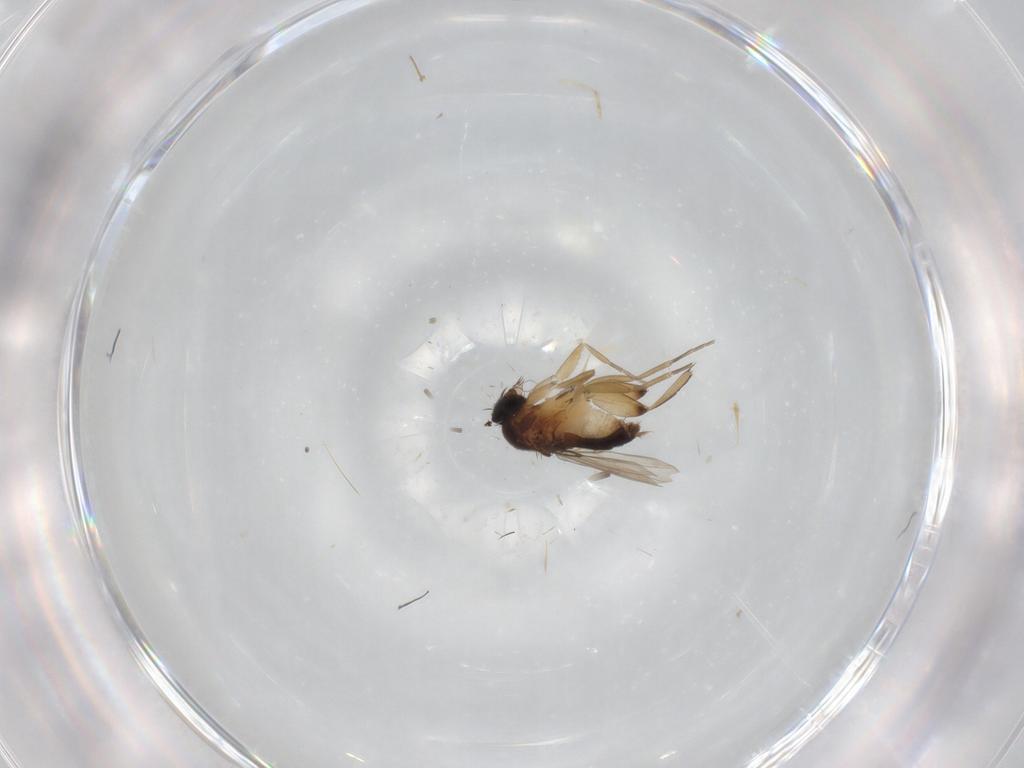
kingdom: Animalia
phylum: Arthropoda
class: Insecta
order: Diptera
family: Phoridae
